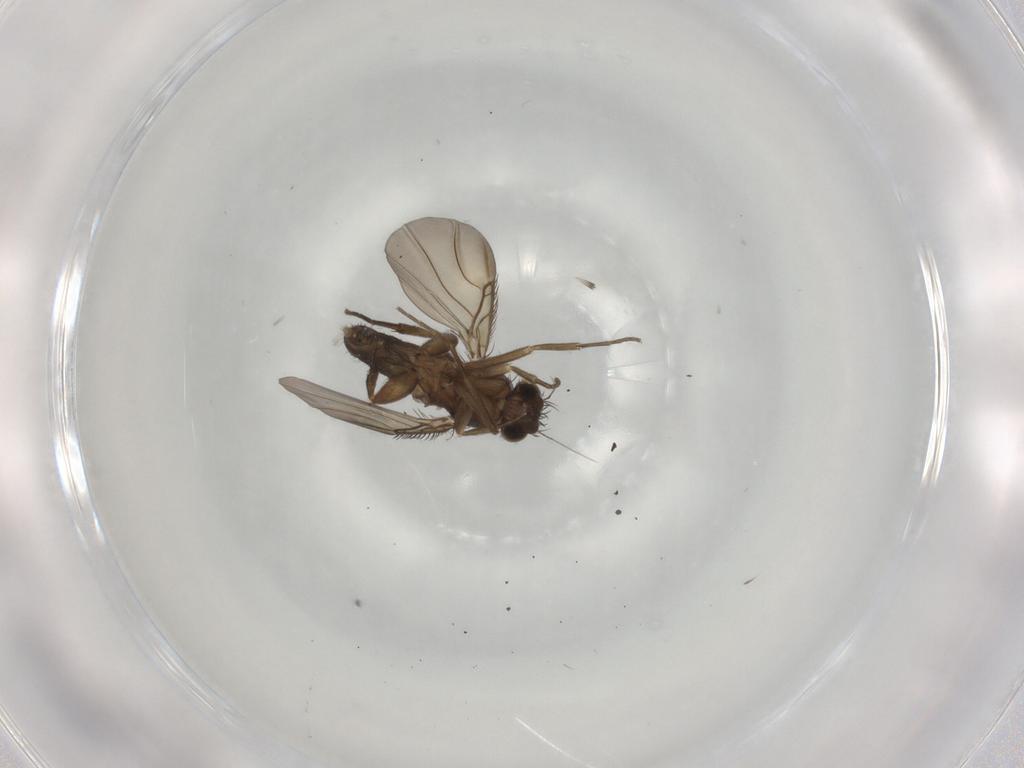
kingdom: Animalia
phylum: Arthropoda
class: Insecta
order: Diptera
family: Phoridae
